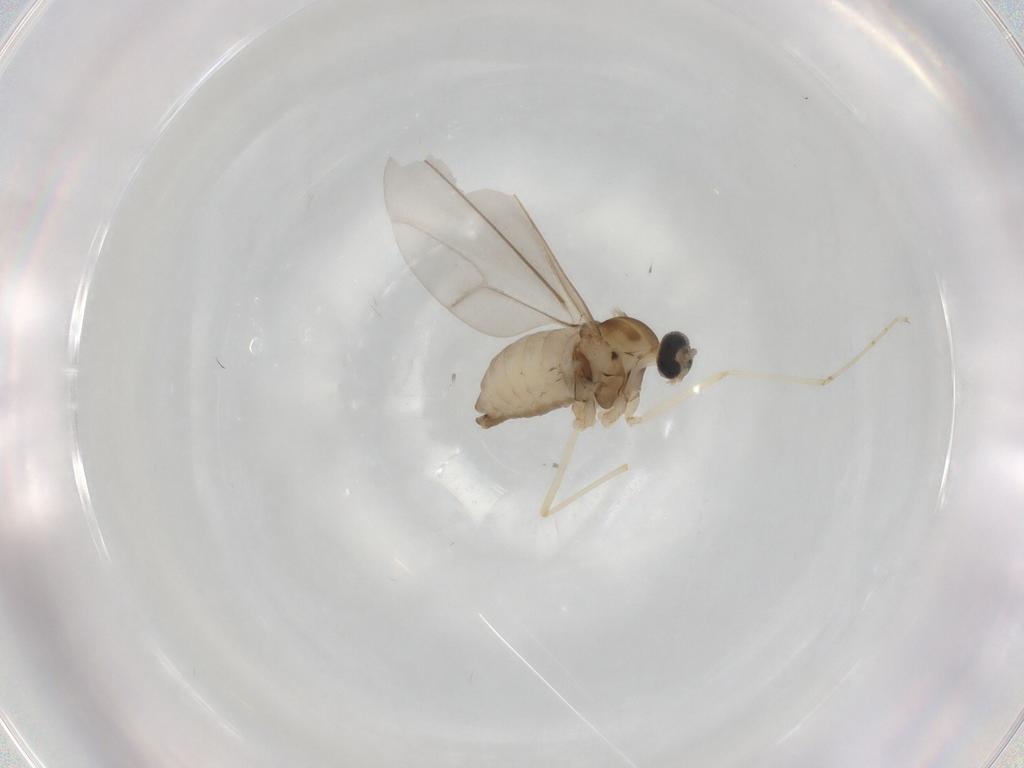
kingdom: Animalia
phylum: Arthropoda
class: Insecta
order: Diptera
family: Cecidomyiidae
